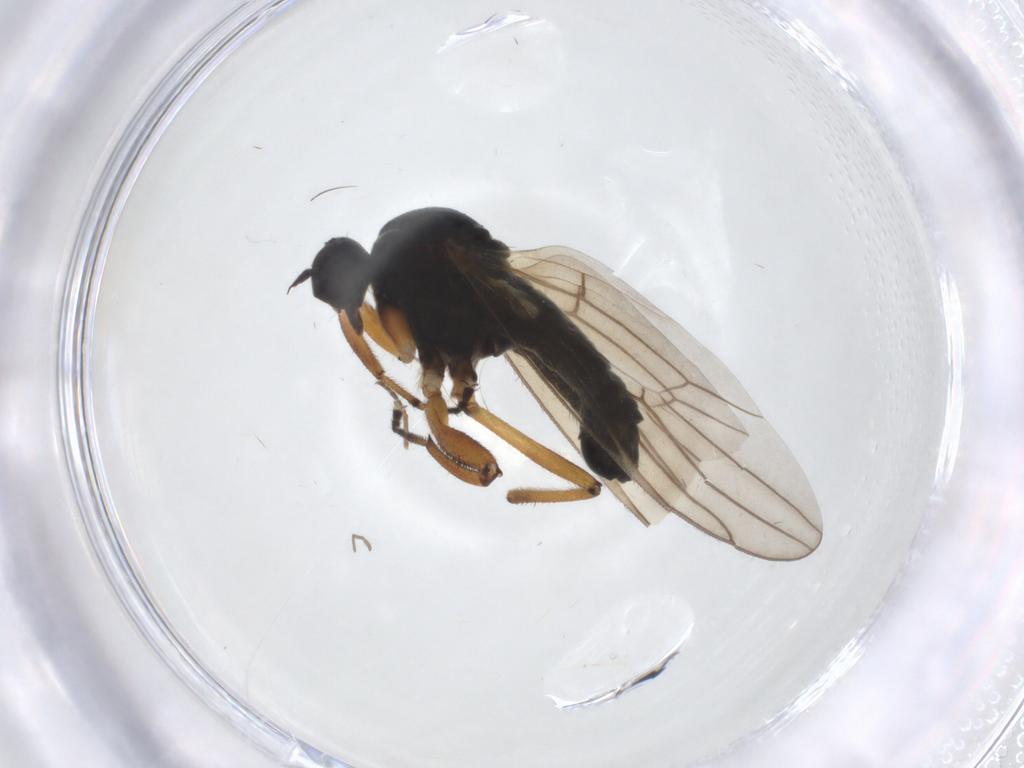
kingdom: Animalia
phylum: Arthropoda
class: Insecta
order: Diptera
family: Hybotidae
